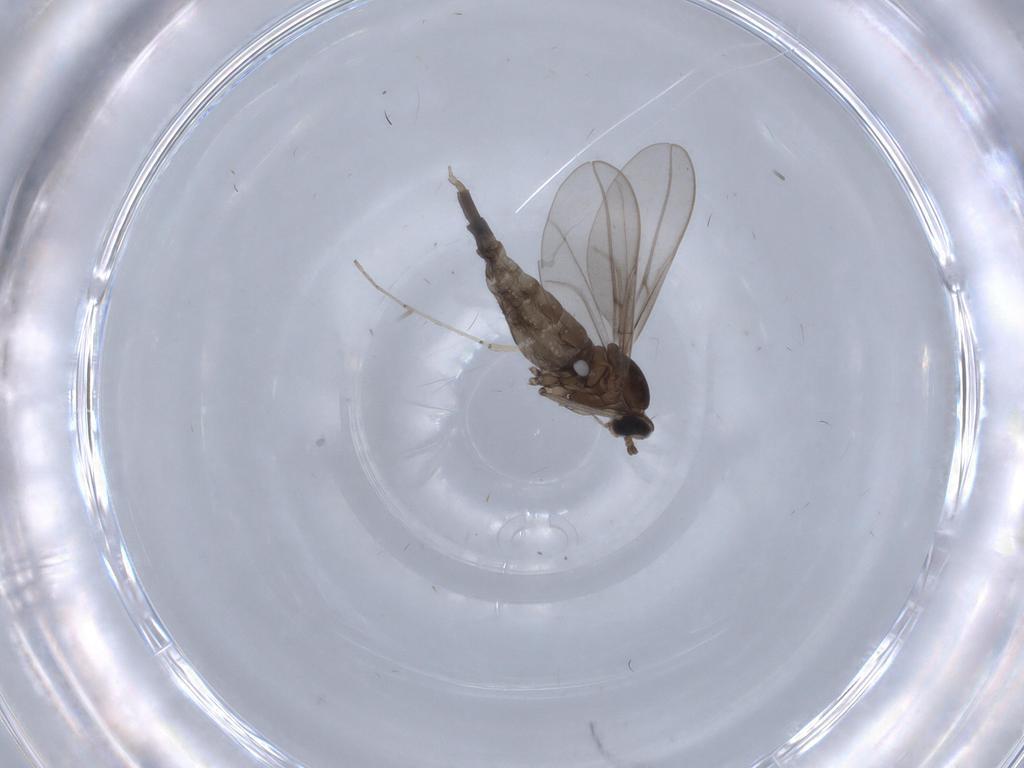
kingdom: Animalia
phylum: Arthropoda
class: Insecta
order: Diptera
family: Cecidomyiidae
